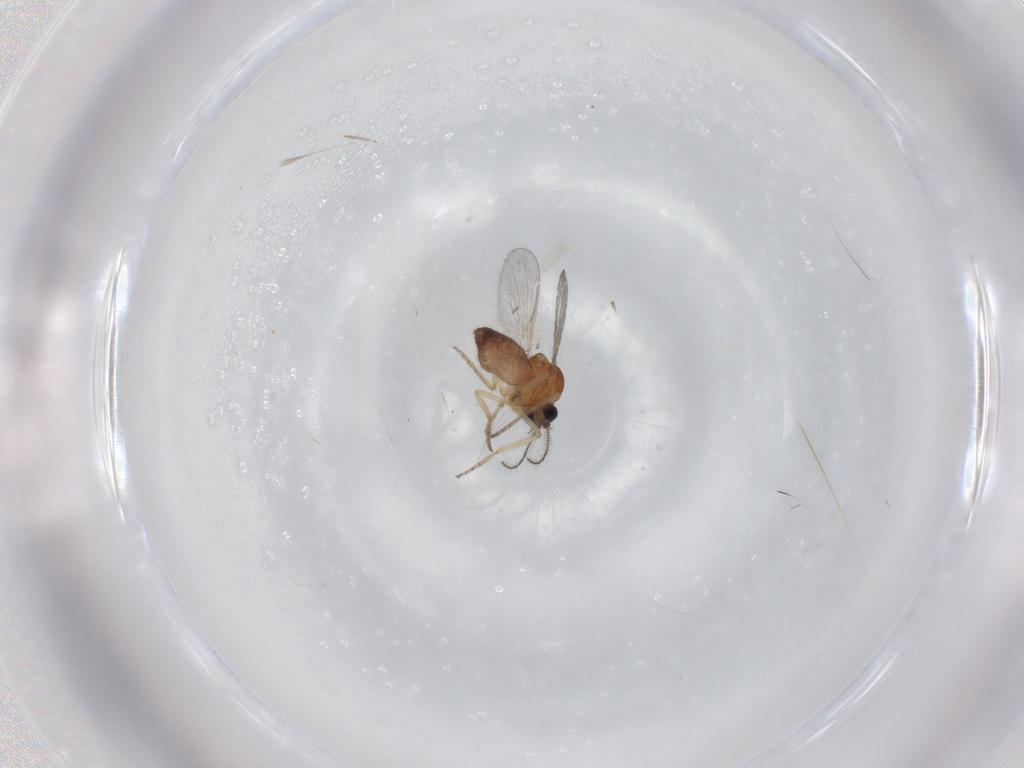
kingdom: Animalia
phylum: Arthropoda
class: Insecta
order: Diptera
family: Cecidomyiidae
